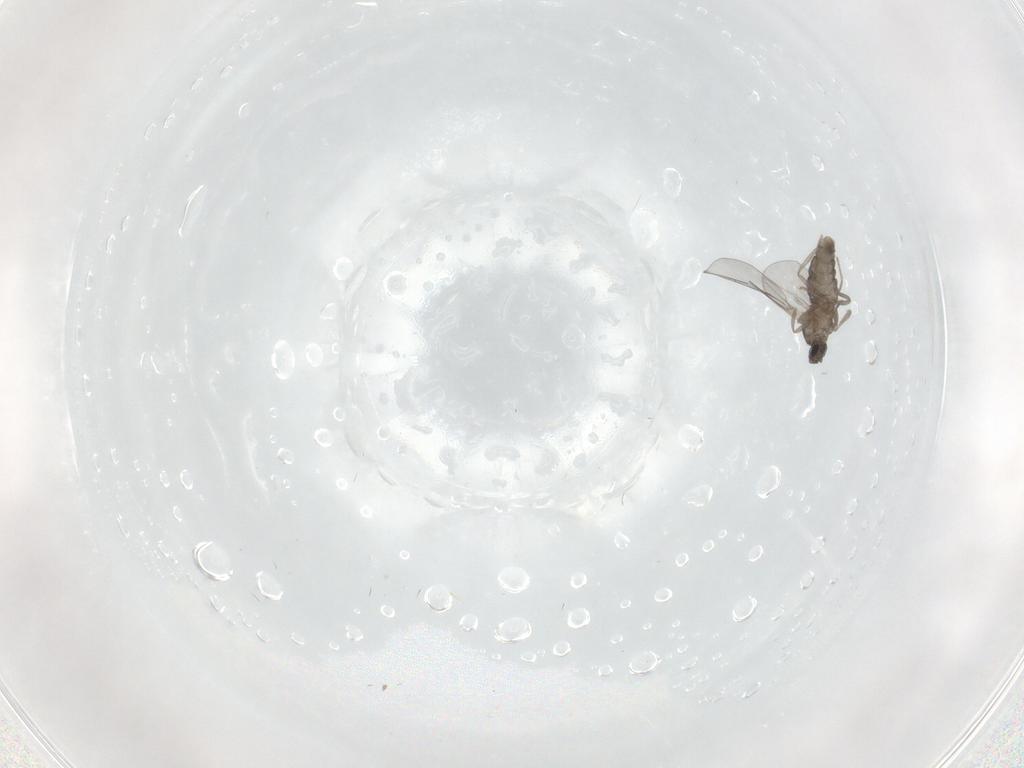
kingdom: Animalia
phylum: Arthropoda
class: Insecta
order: Diptera
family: Cecidomyiidae
